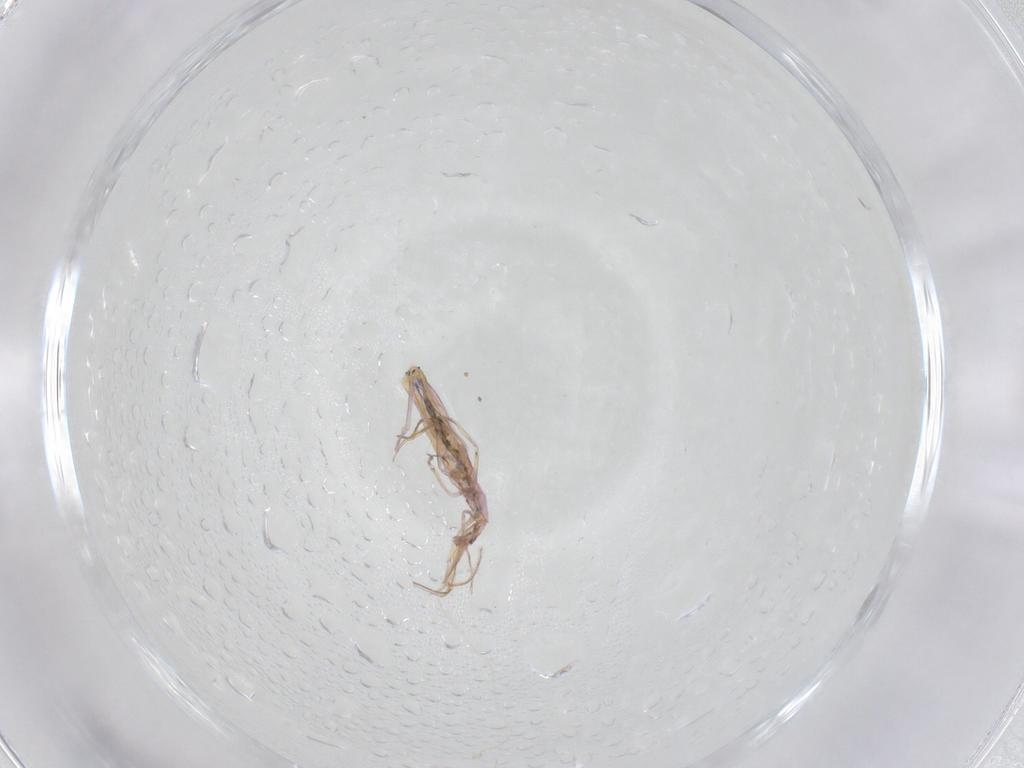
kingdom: Animalia
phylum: Arthropoda
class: Collembola
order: Entomobryomorpha
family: Entomobryidae
